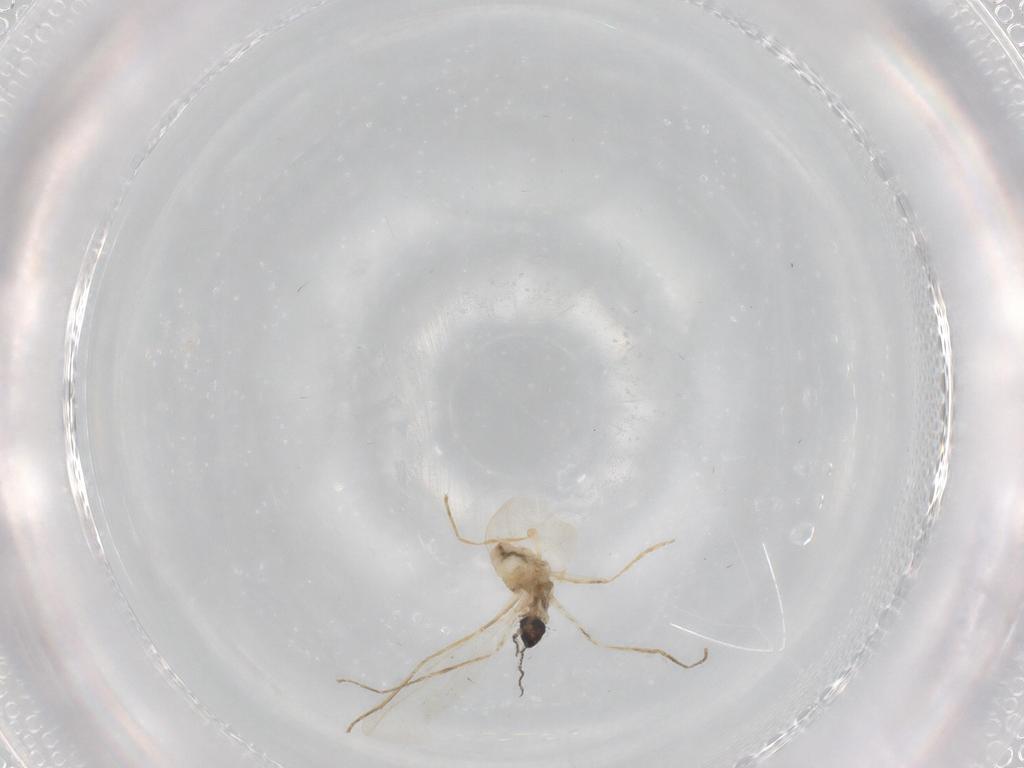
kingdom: Animalia
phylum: Arthropoda
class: Insecta
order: Diptera
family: Cecidomyiidae
